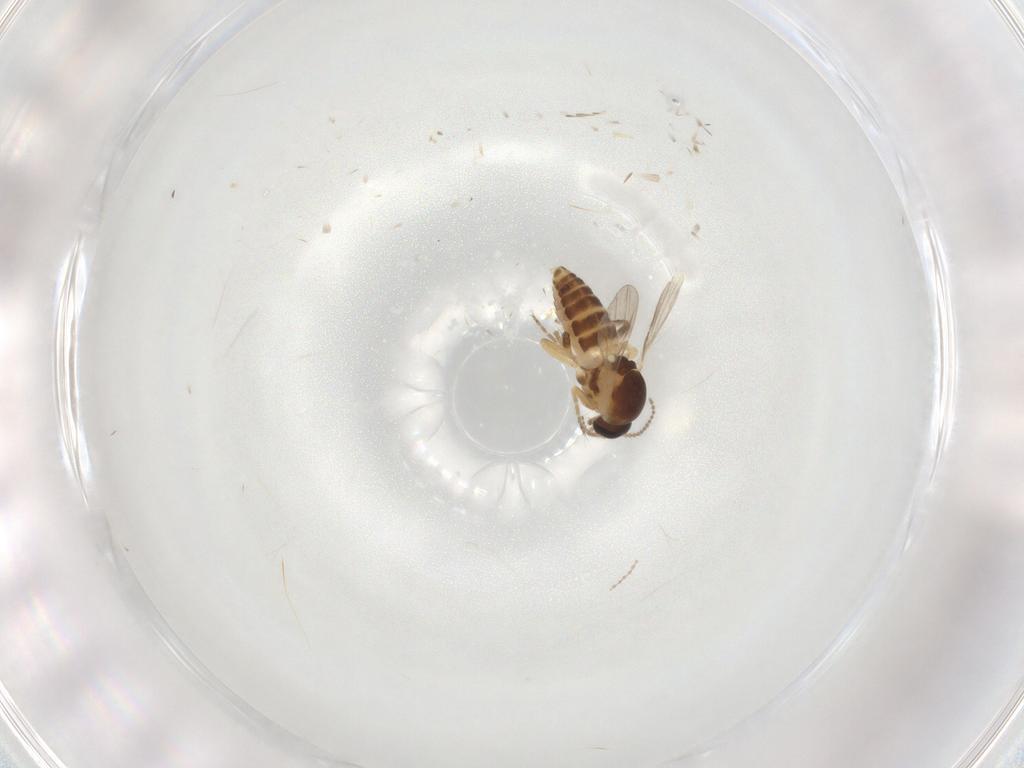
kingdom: Animalia
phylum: Arthropoda
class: Insecta
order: Diptera
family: Ceratopogonidae
